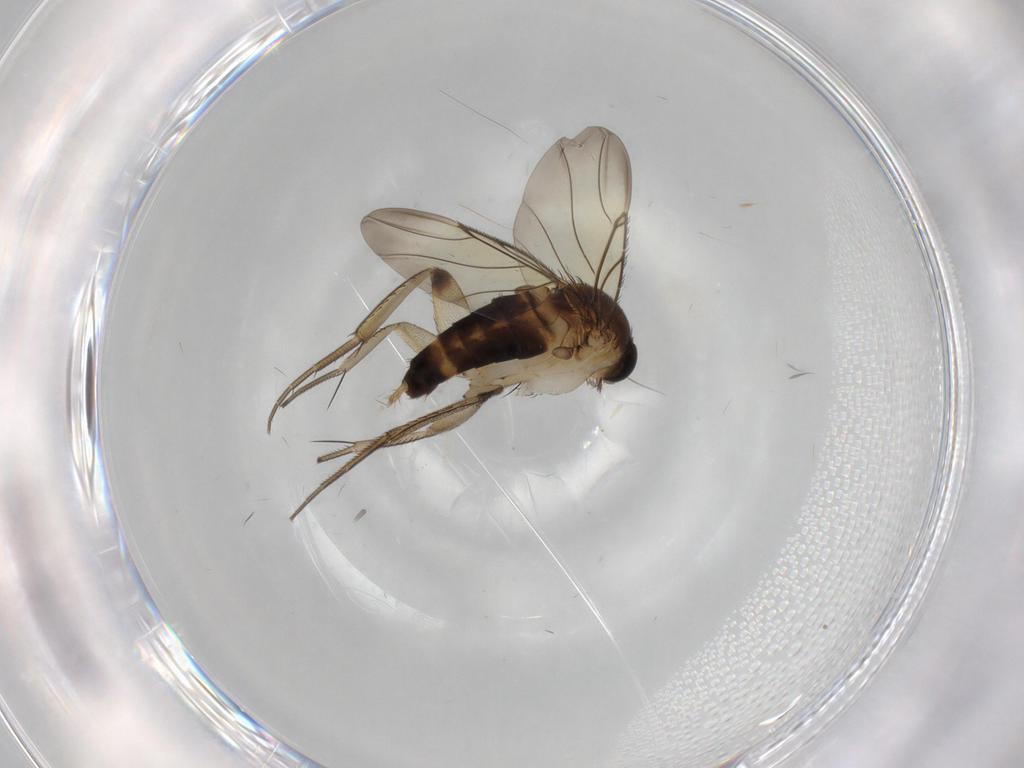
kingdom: Animalia
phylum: Arthropoda
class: Insecta
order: Diptera
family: Phoridae
